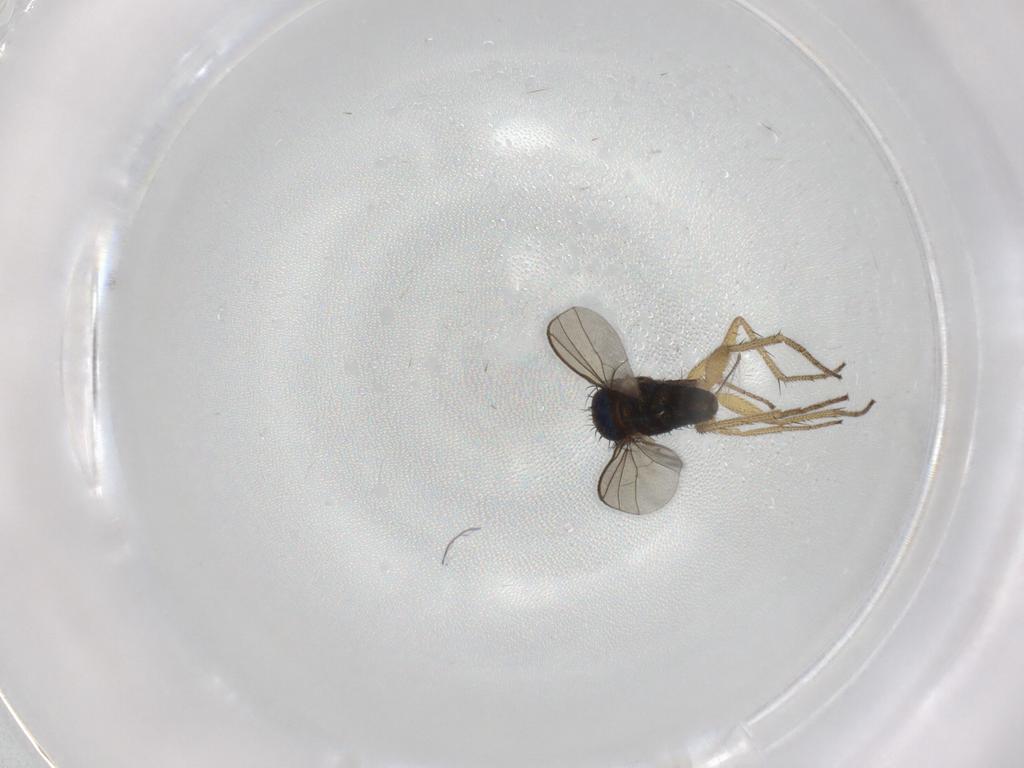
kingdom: Animalia
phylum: Arthropoda
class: Insecta
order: Diptera
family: Dolichopodidae
